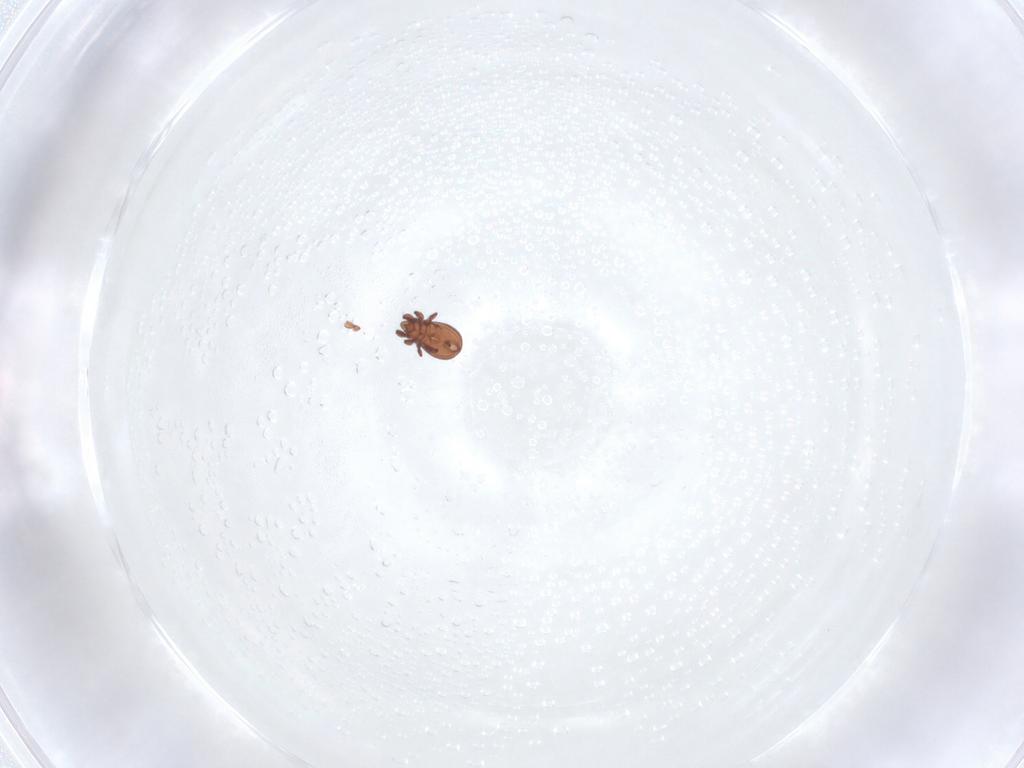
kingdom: Animalia
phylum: Arthropoda
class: Arachnida
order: Sarcoptiformes
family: Eremaeidae
